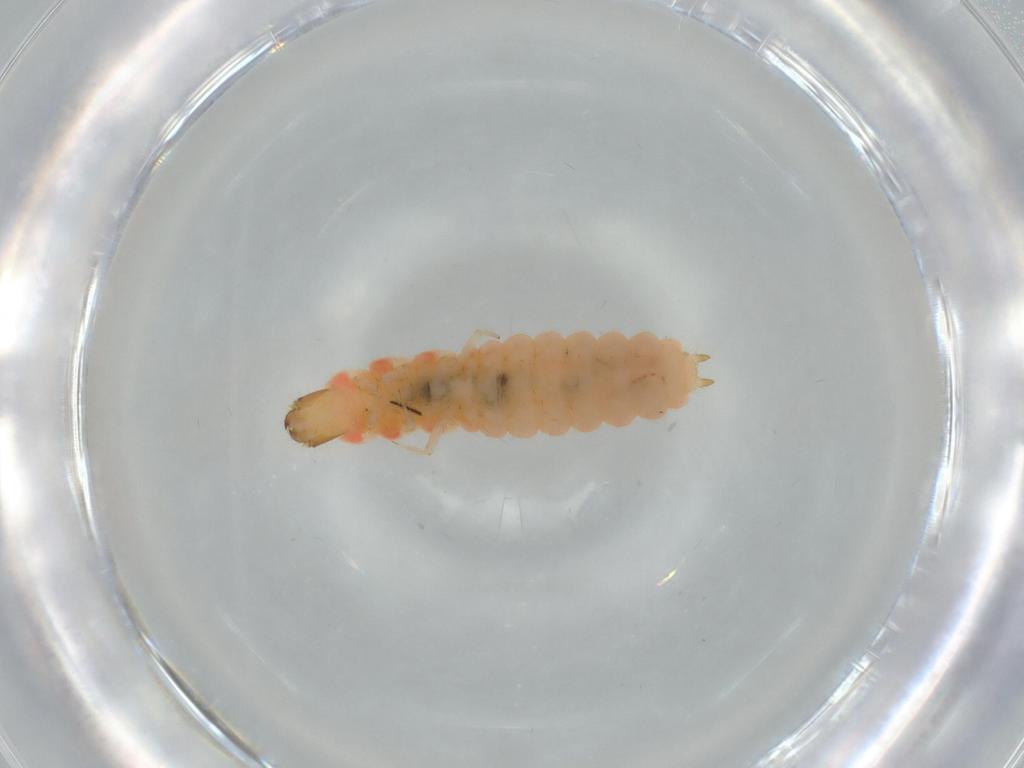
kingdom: Animalia
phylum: Arthropoda
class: Insecta
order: Coleoptera
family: Melyridae
